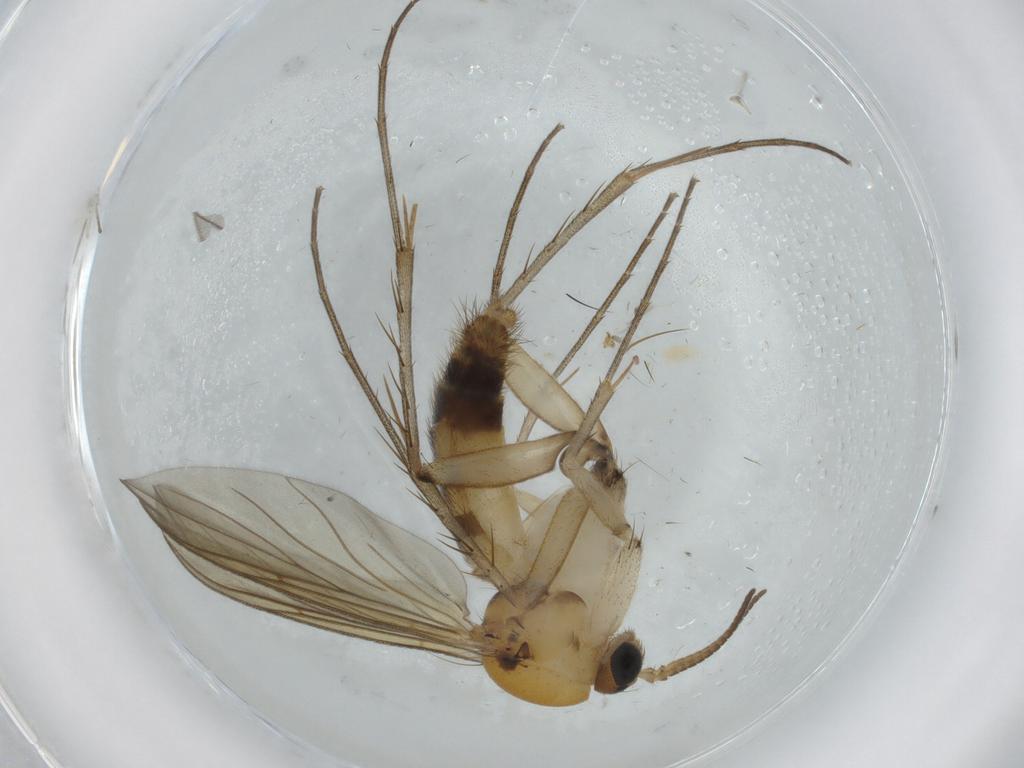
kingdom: Animalia
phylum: Arthropoda
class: Insecta
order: Diptera
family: Mycetophilidae
